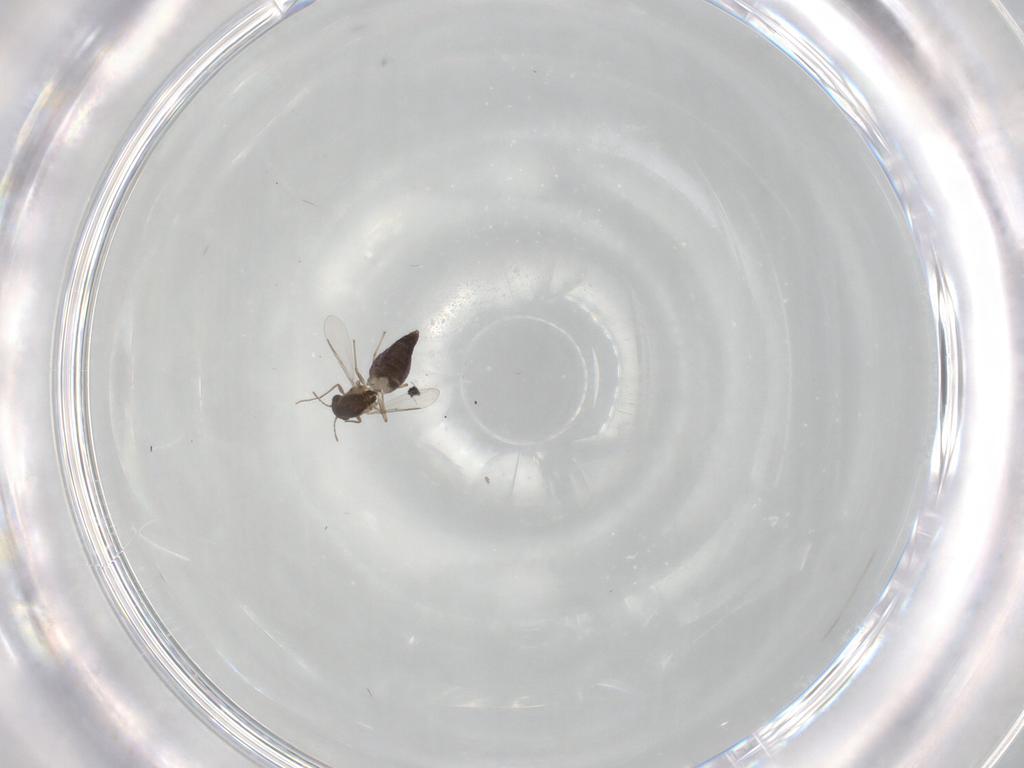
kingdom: Animalia
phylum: Arthropoda
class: Insecta
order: Diptera
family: Chironomidae
